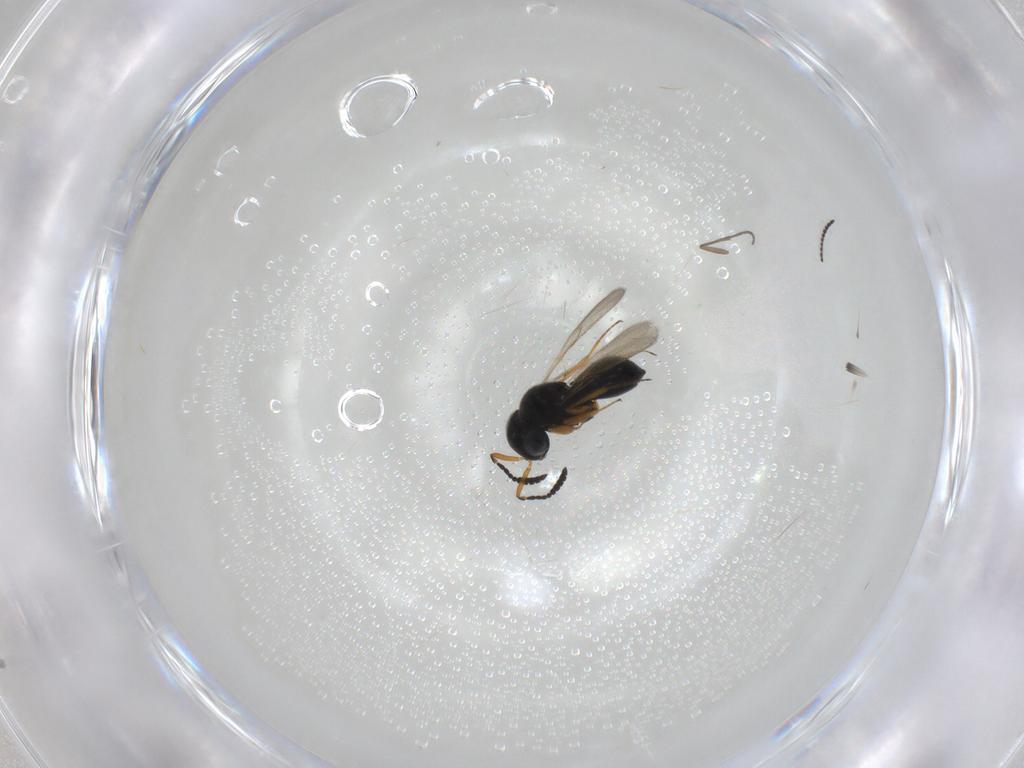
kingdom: Animalia
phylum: Arthropoda
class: Insecta
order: Hymenoptera
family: Scelionidae
